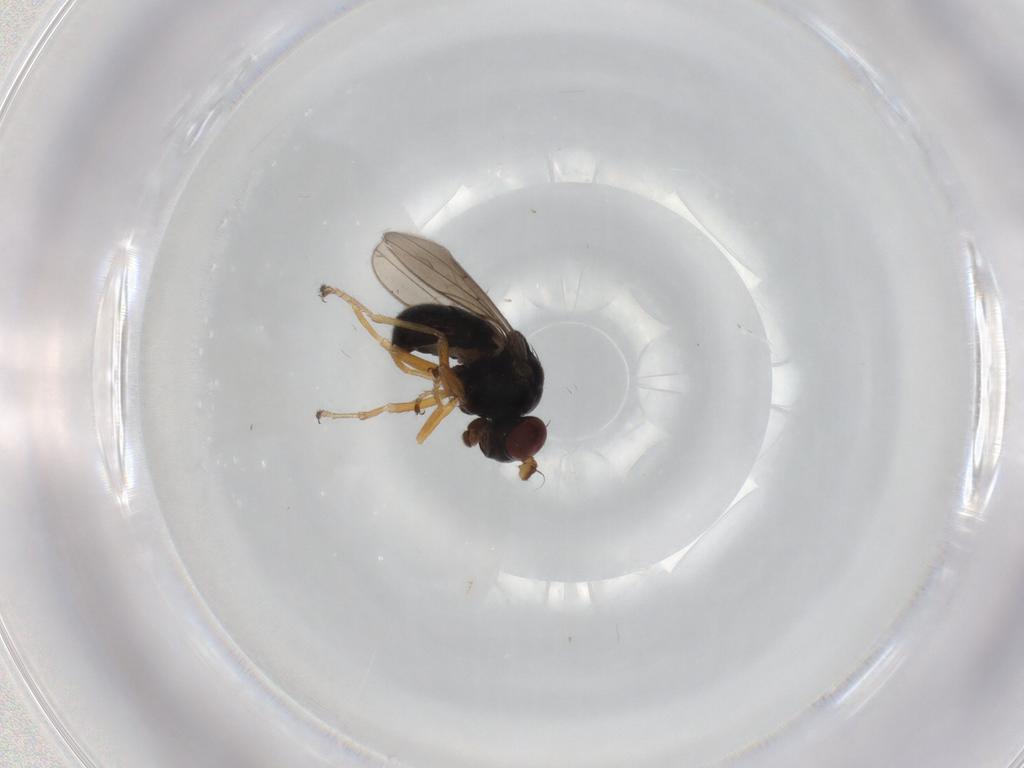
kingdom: Animalia
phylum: Arthropoda
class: Insecta
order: Diptera
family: Ephydridae
